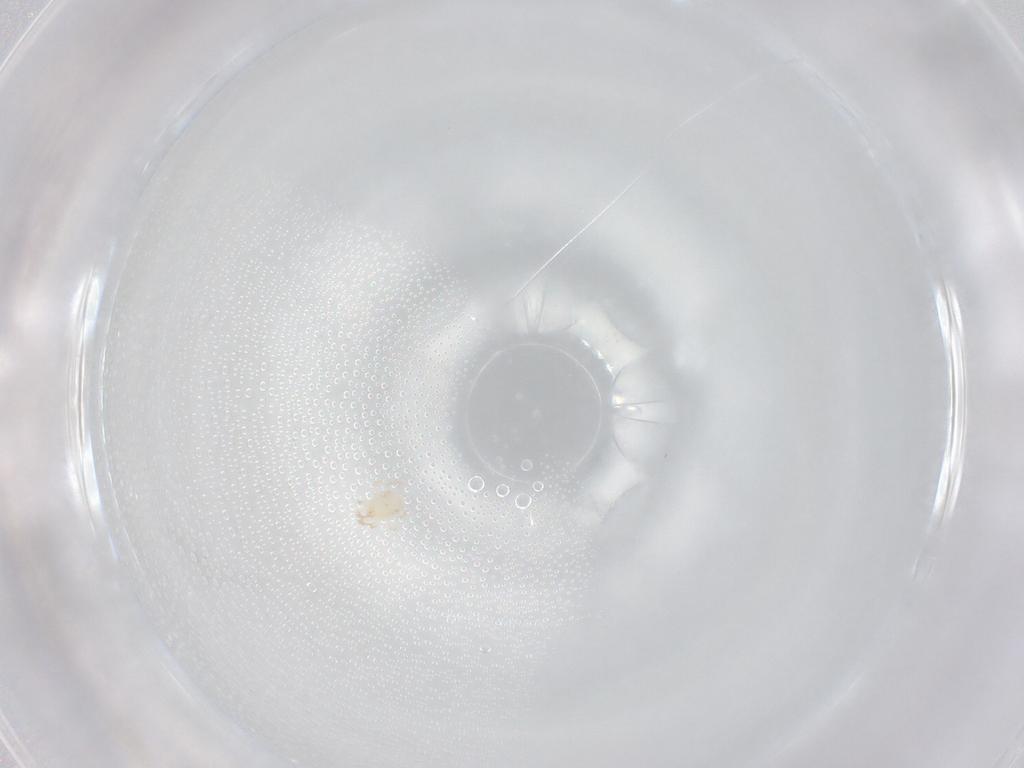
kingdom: Animalia
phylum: Arthropoda
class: Arachnida
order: Mesostigmata
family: Phytoseiidae
